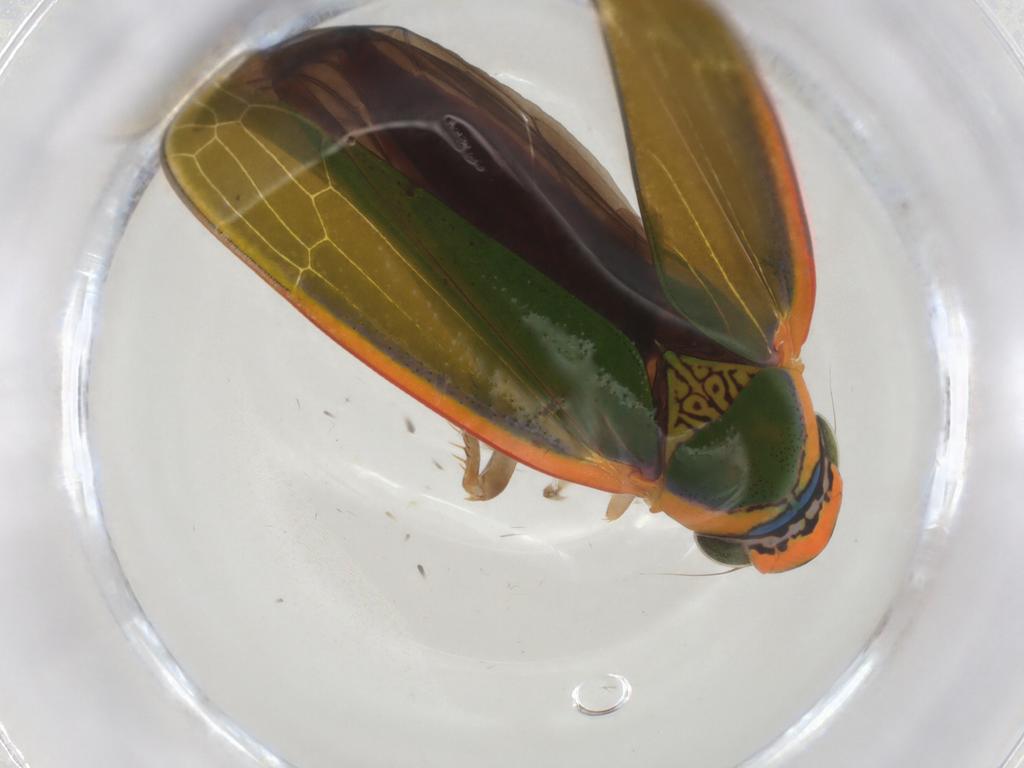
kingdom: Animalia
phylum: Arthropoda
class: Insecta
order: Hemiptera
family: Cicadellidae
